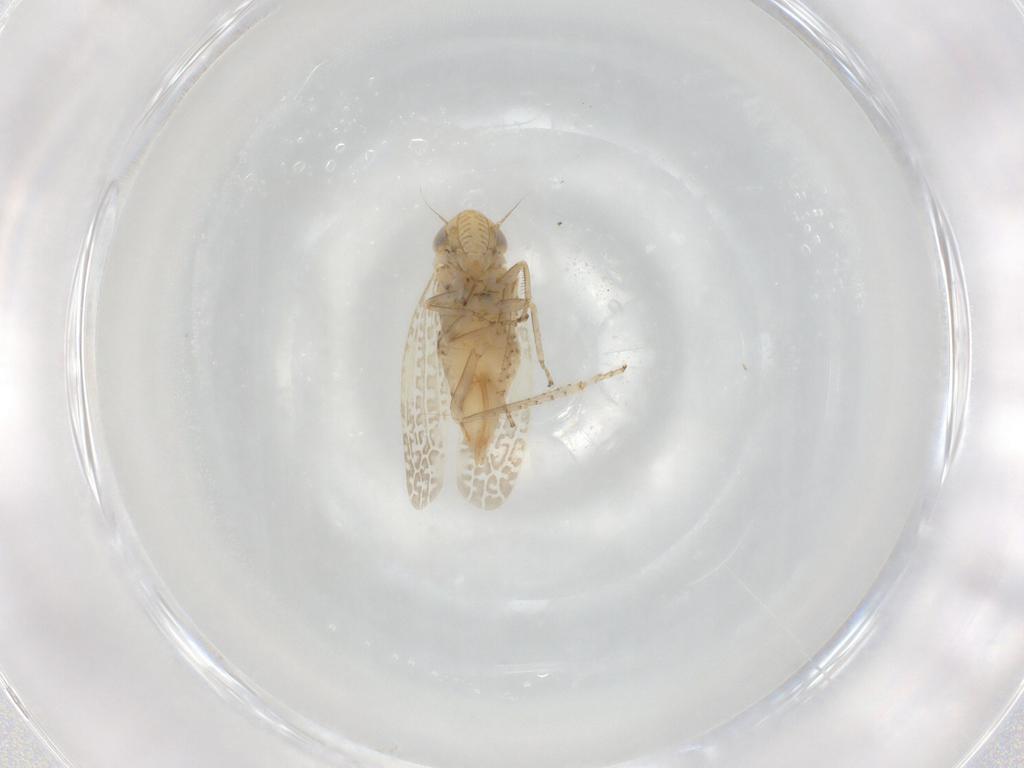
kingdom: Animalia
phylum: Arthropoda
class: Insecta
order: Hemiptera
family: Cicadellidae
